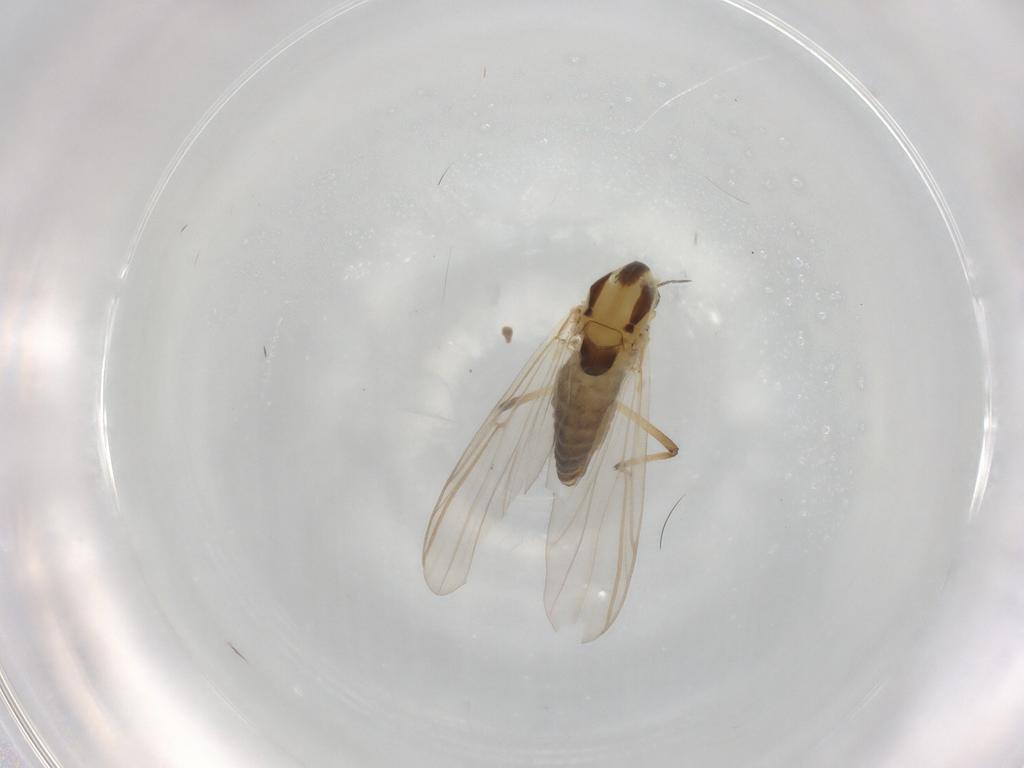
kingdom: Animalia
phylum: Arthropoda
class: Insecta
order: Diptera
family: Chironomidae
